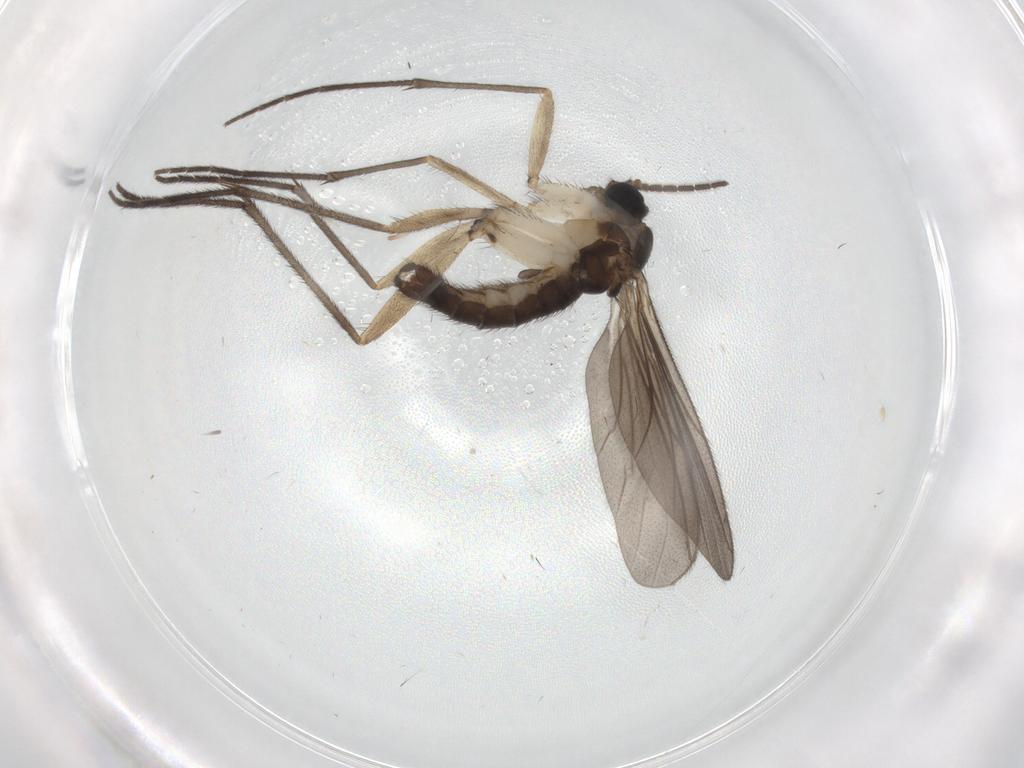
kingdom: Animalia
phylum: Arthropoda
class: Insecta
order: Diptera
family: Sciaridae
